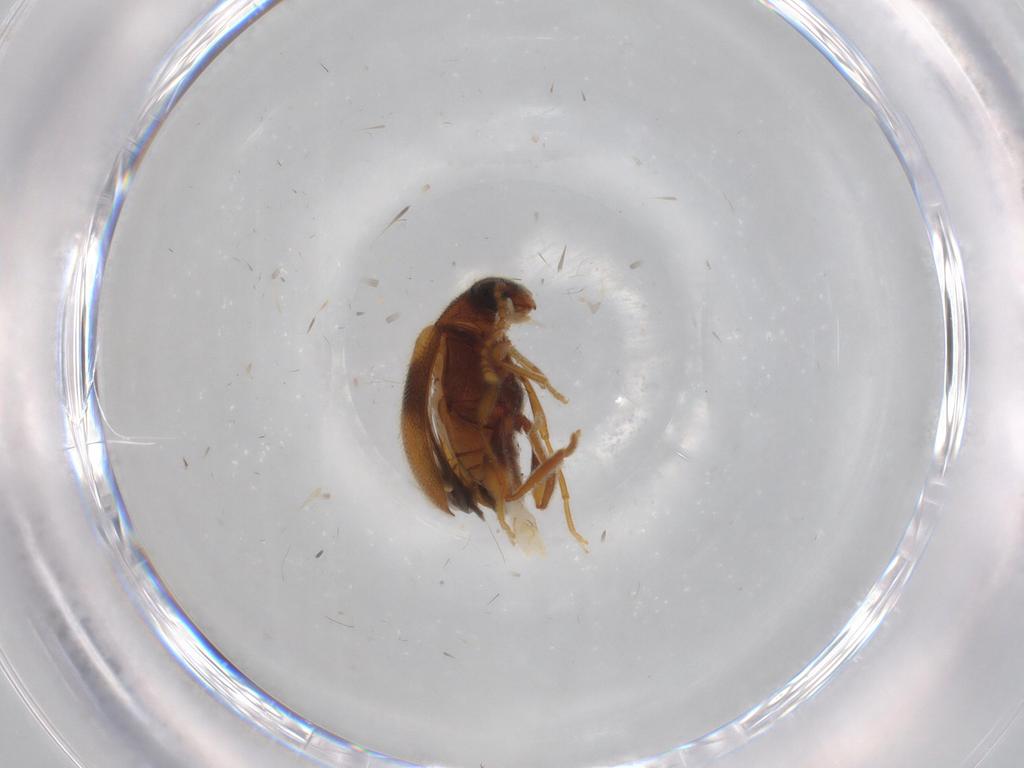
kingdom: Animalia
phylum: Arthropoda
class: Insecta
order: Coleoptera
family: Aderidae
